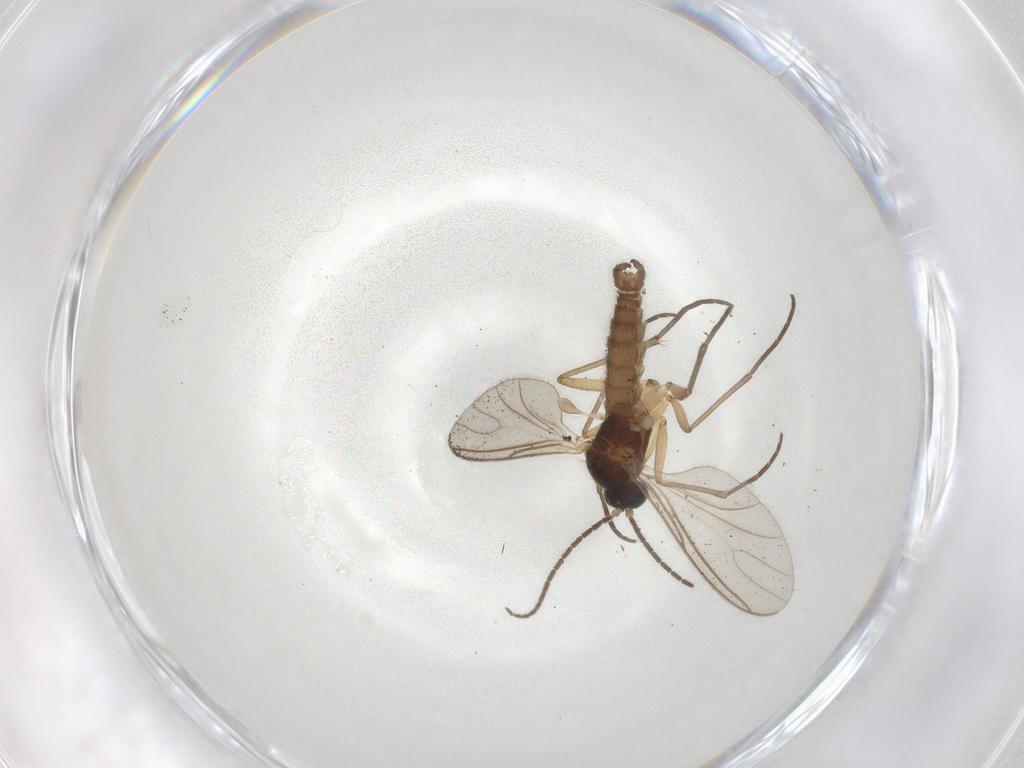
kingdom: Animalia
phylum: Arthropoda
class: Insecta
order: Diptera
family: Sciaridae
